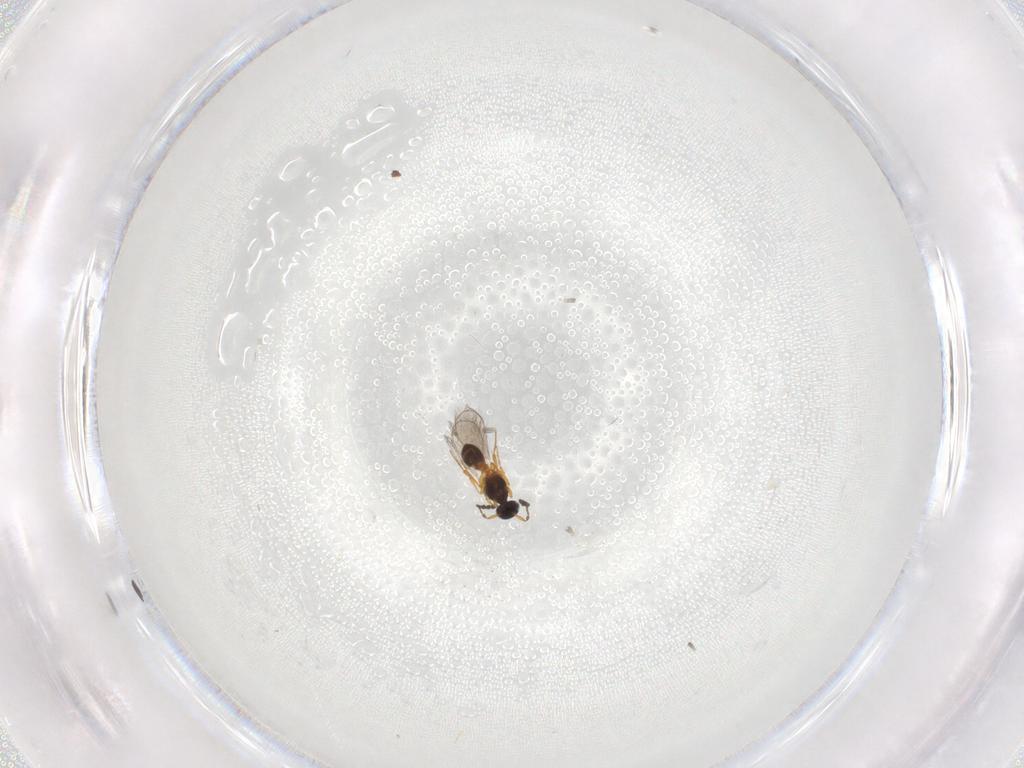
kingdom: Animalia
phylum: Arthropoda
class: Insecta
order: Hymenoptera
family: Platygastridae
